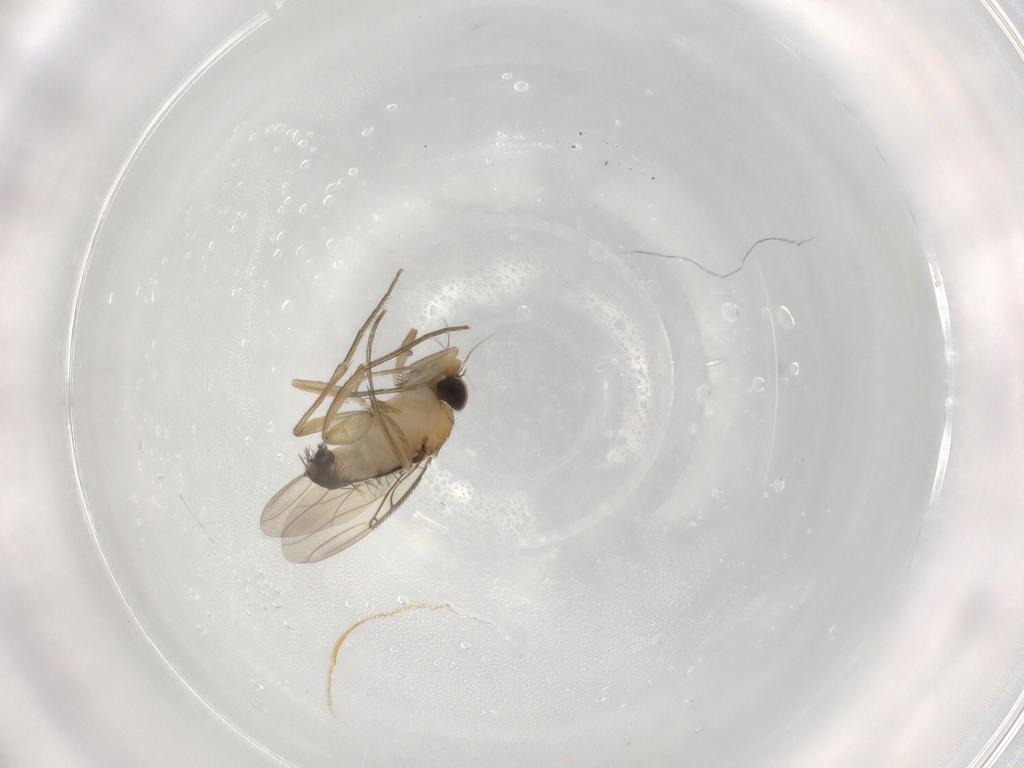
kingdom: Animalia
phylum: Arthropoda
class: Insecta
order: Diptera
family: Phoridae
